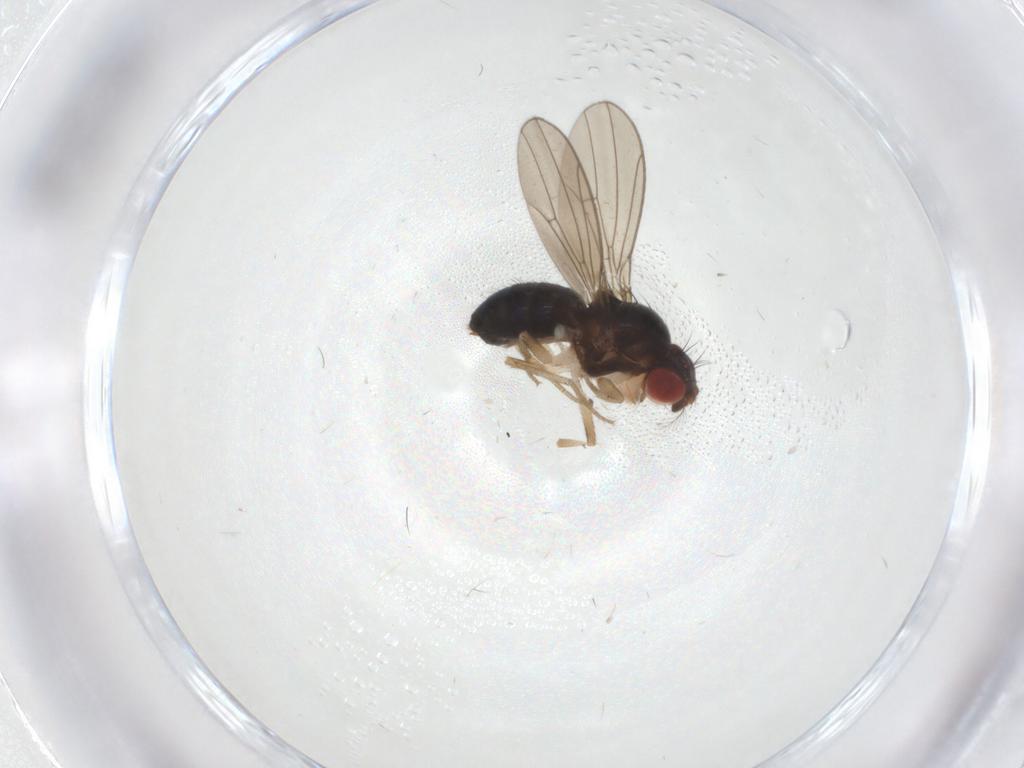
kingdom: Animalia
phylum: Arthropoda
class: Insecta
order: Diptera
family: Drosophilidae
